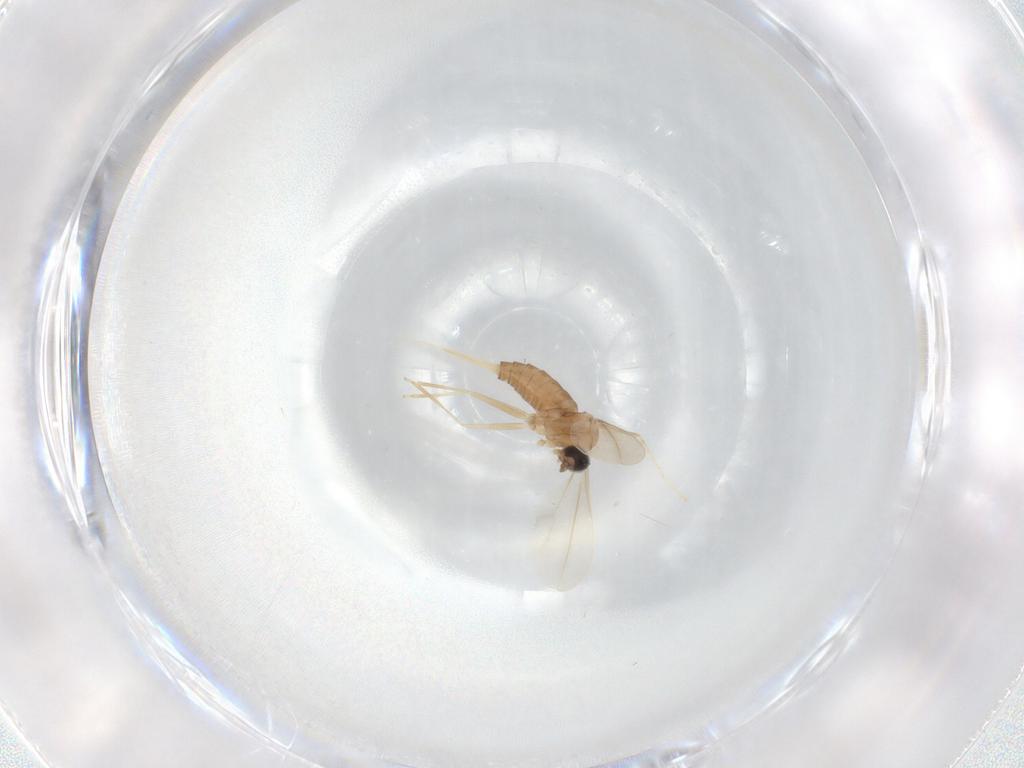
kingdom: Animalia
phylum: Arthropoda
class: Insecta
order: Diptera
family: Cecidomyiidae
